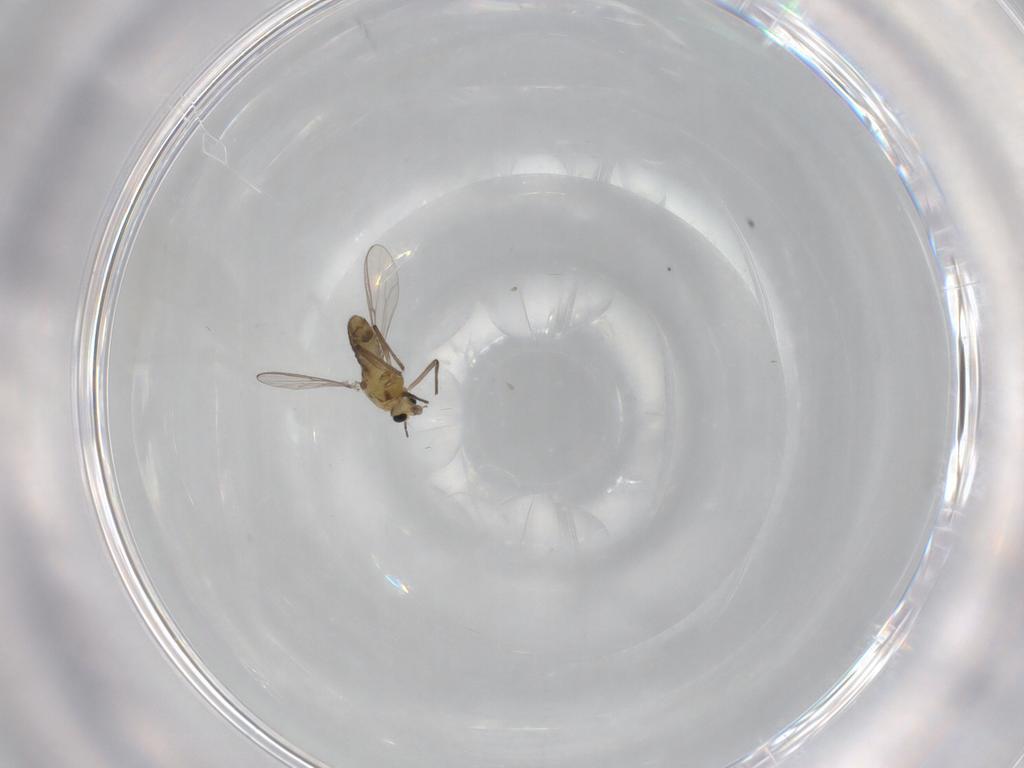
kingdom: Animalia
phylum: Arthropoda
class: Insecta
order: Diptera
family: Chironomidae
